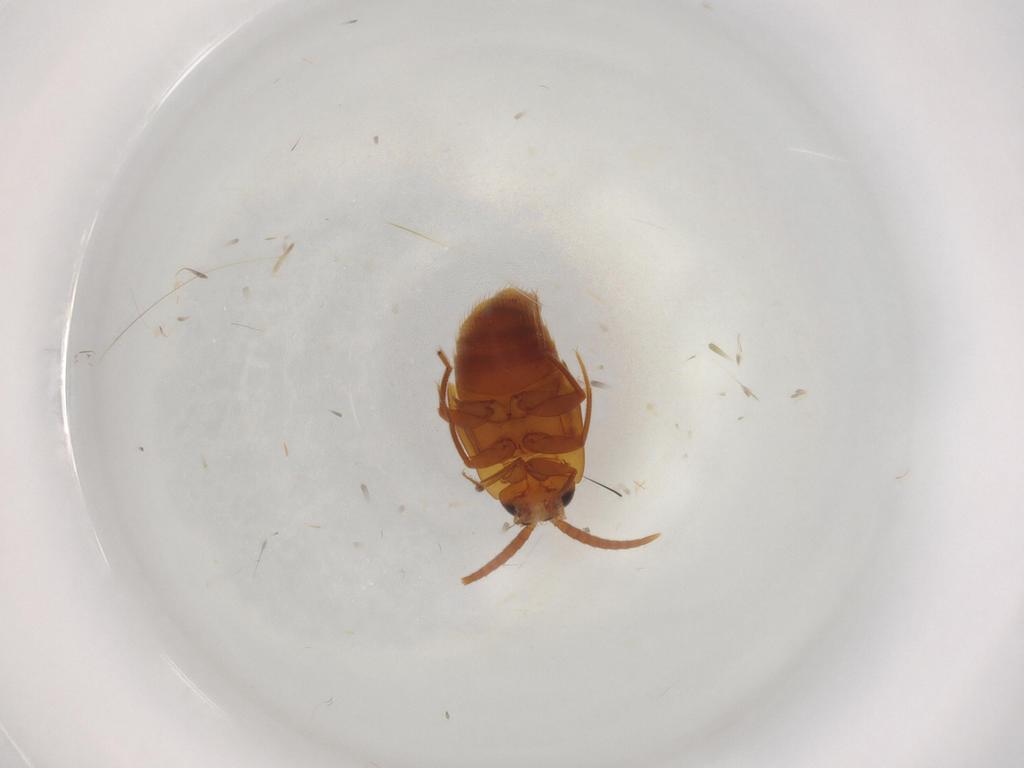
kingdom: Animalia
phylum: Arthropoda
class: Insecta
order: Coleoptera
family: Staphylinidae
